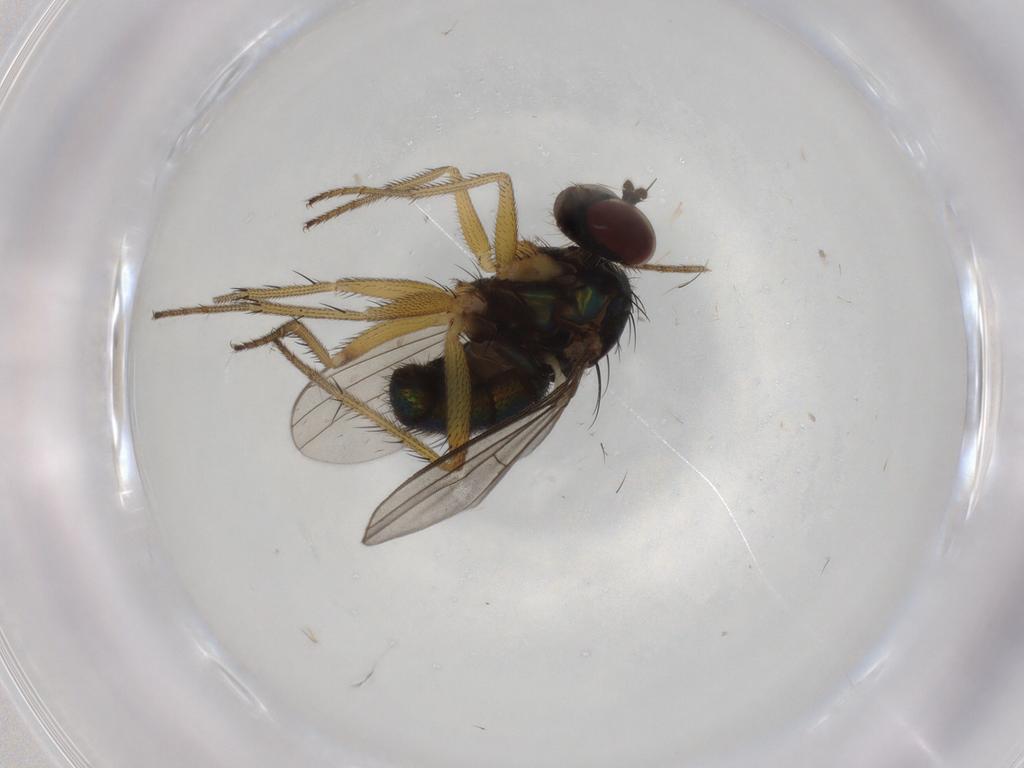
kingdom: Animalia
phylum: Arthropoda
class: Insecta
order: Diptera
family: Dolichopodidae
